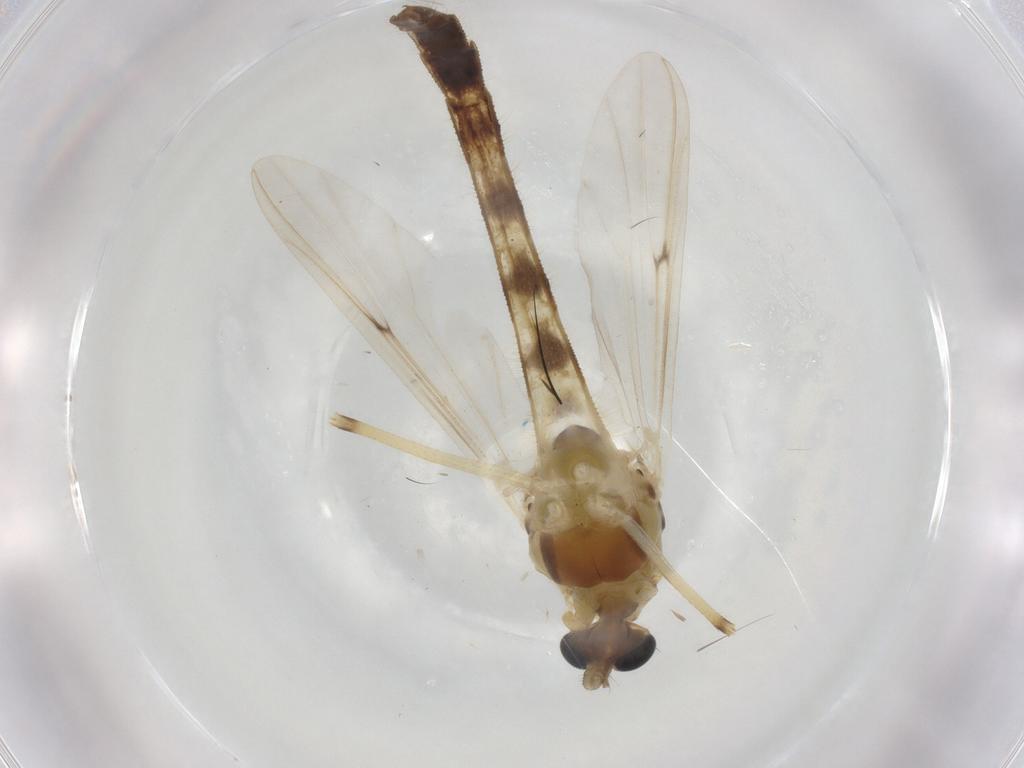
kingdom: Animalia
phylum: Arthropoda
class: Insecta
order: Diptera
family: Chironomidae
